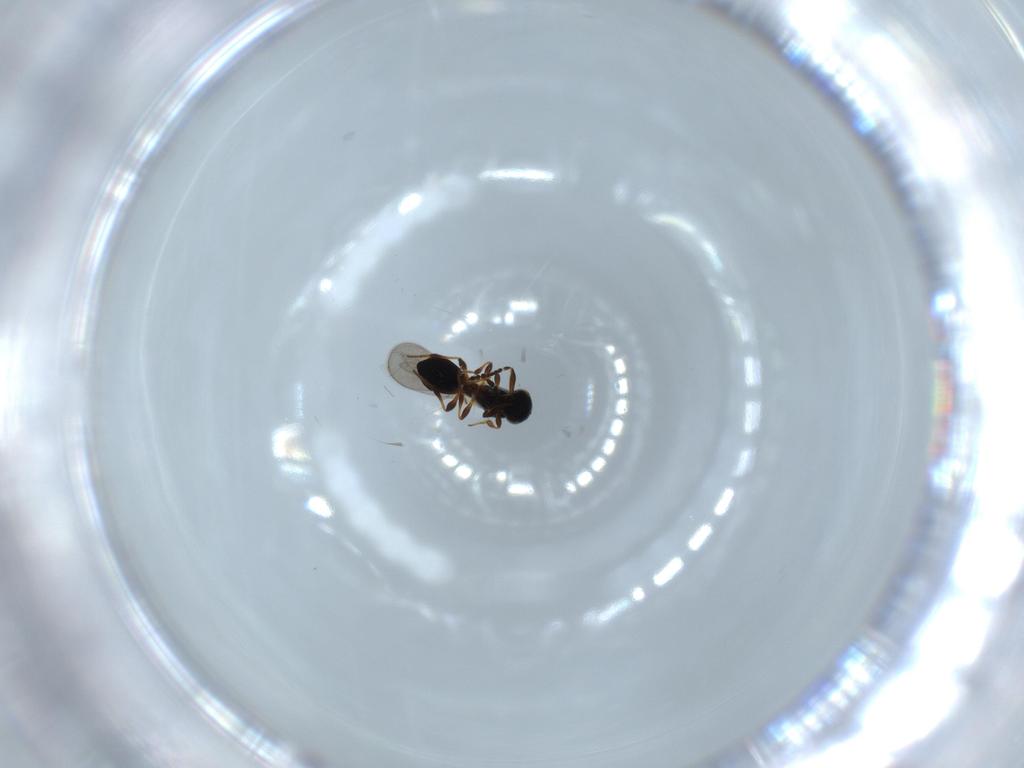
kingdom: Animalia
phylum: Arthropoda
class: Insecta
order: Hymenoptera
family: Platygastridae
